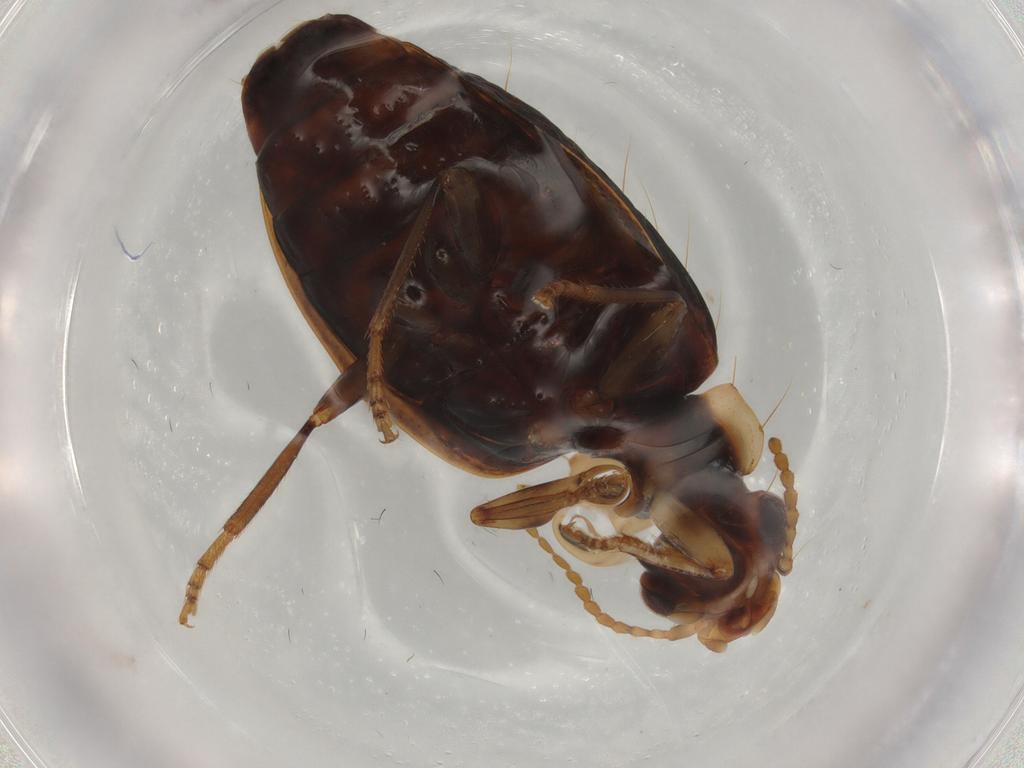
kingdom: Animalia
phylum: Arthropoda
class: Insecta
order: Coleoptera
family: Carabidae
